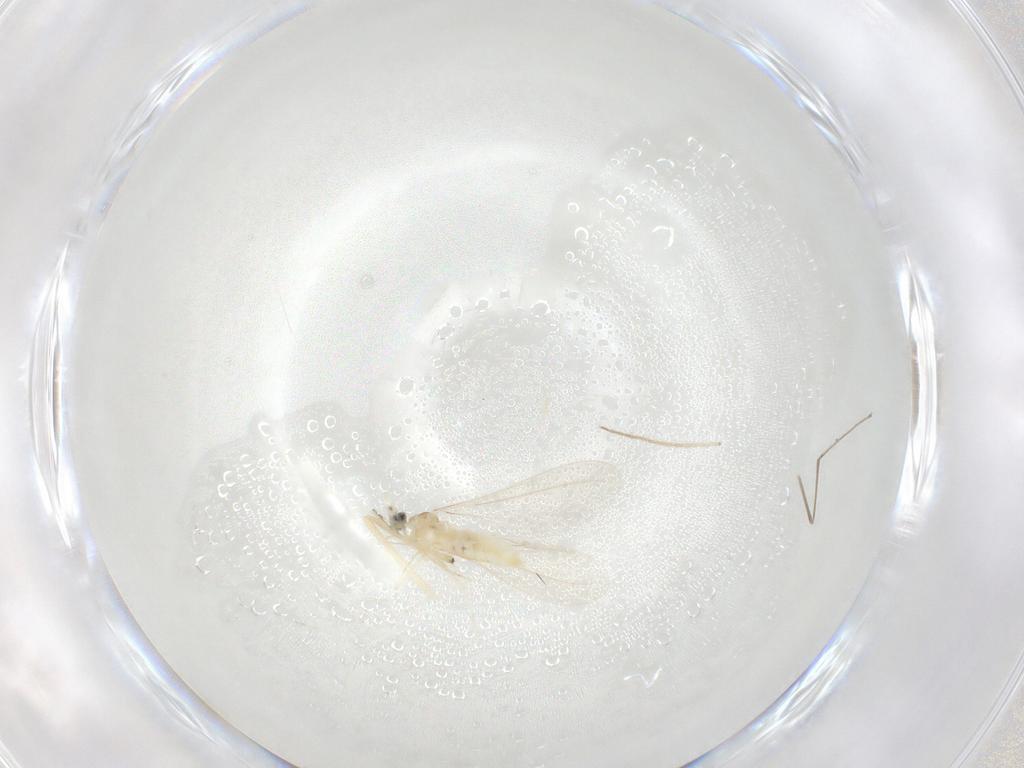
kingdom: Animalia
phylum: Arthropoda
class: Insecta
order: Diptera
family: Cecidomyiidae
